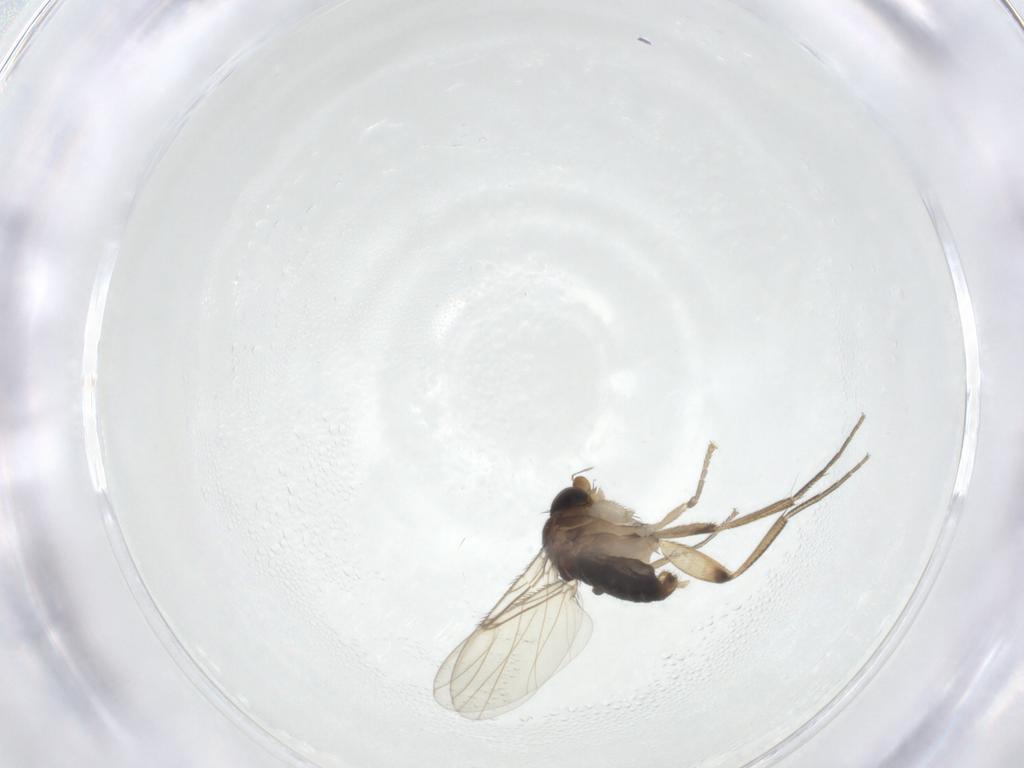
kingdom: Animalia
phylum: Arthropoda
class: Insecta
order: Diptera
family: Phoridae
